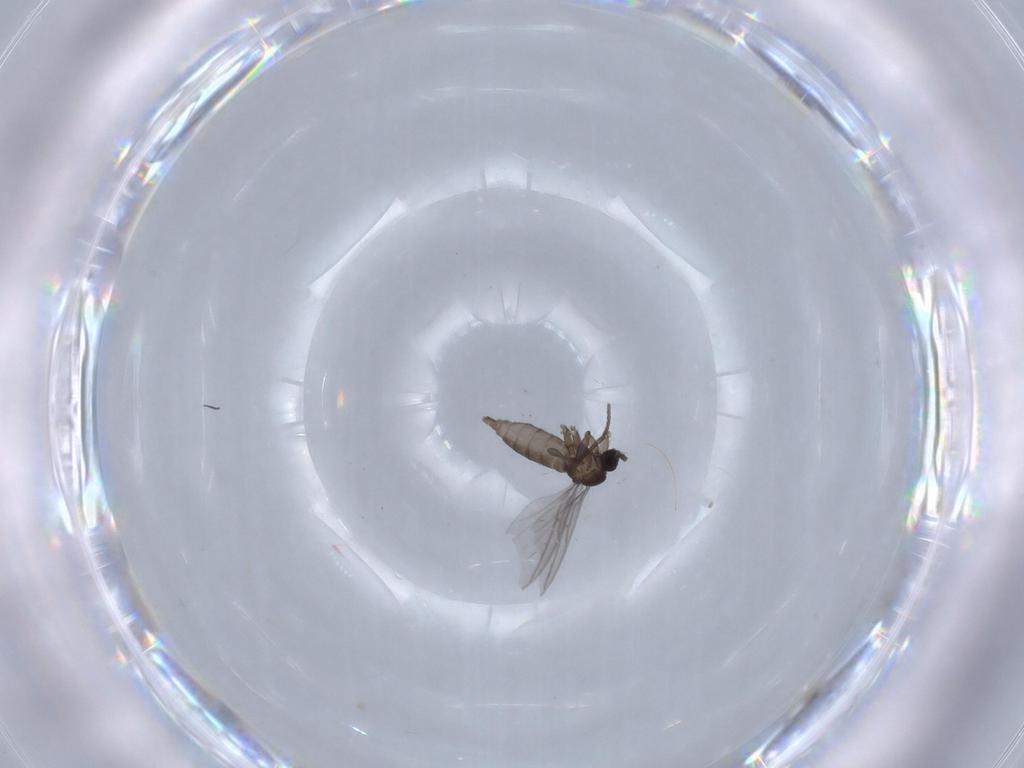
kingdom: Animalia
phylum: Arthropoda
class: Insecta
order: Diptera
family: Sciaridae
